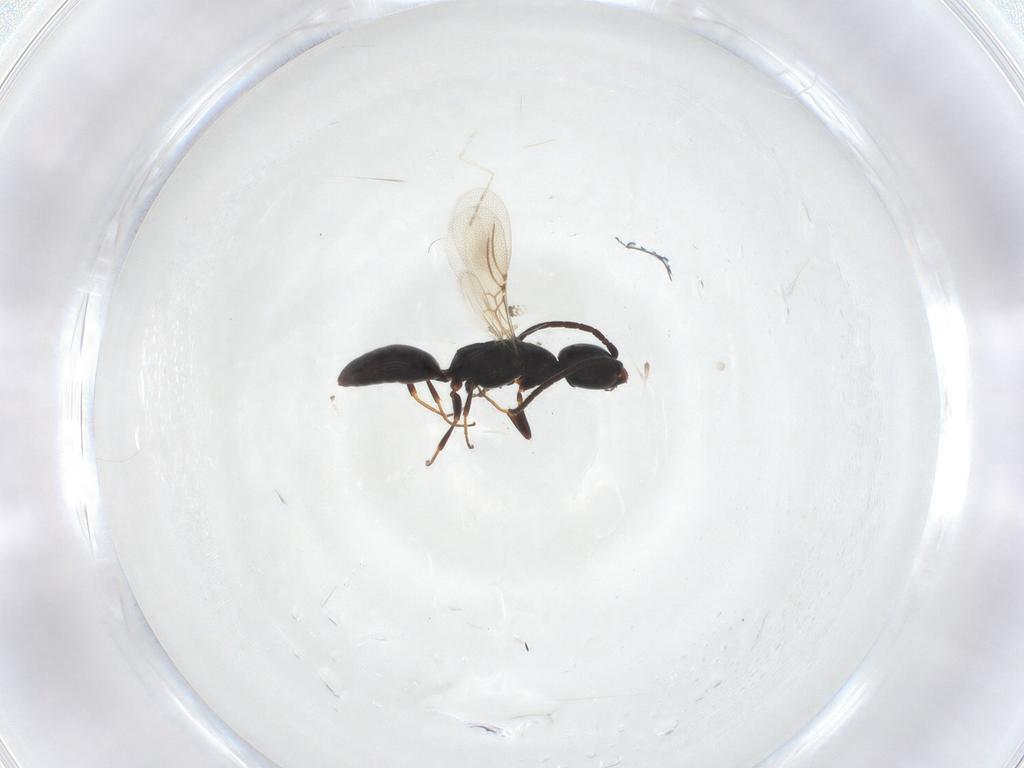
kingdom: Animalia
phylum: Arthropoda
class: Insecta
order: Hymenoptera
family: Bethylidae
